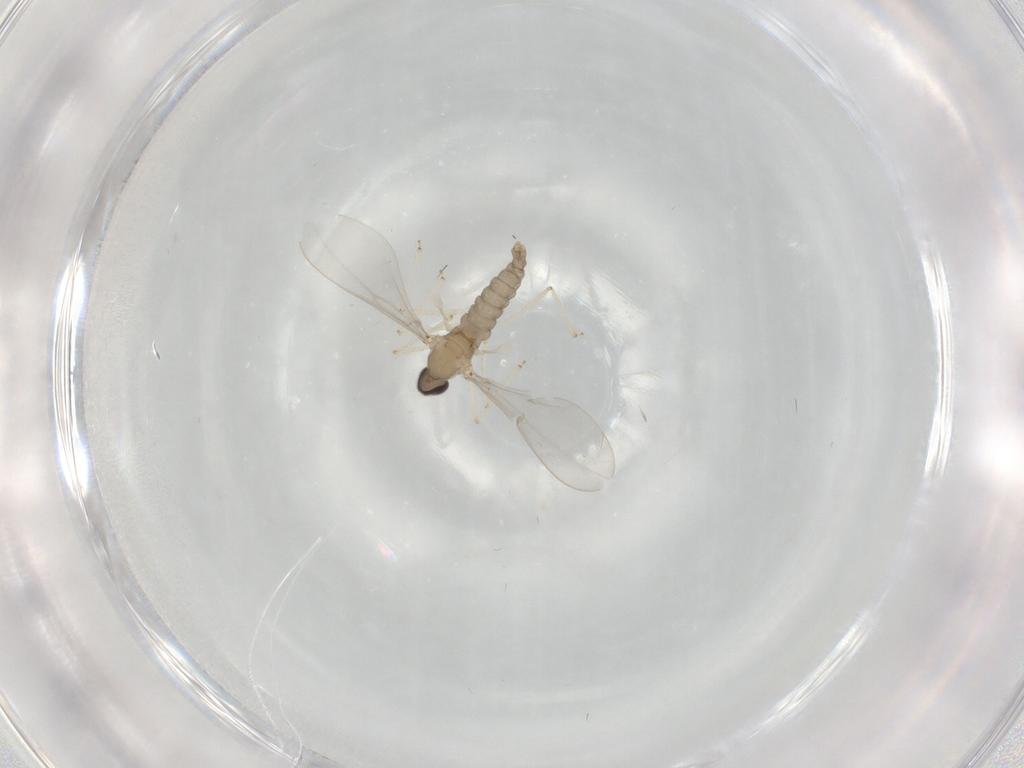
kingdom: Animalia
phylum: Arthropoda
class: Insecta
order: Diptera
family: Cecidomyiidae
